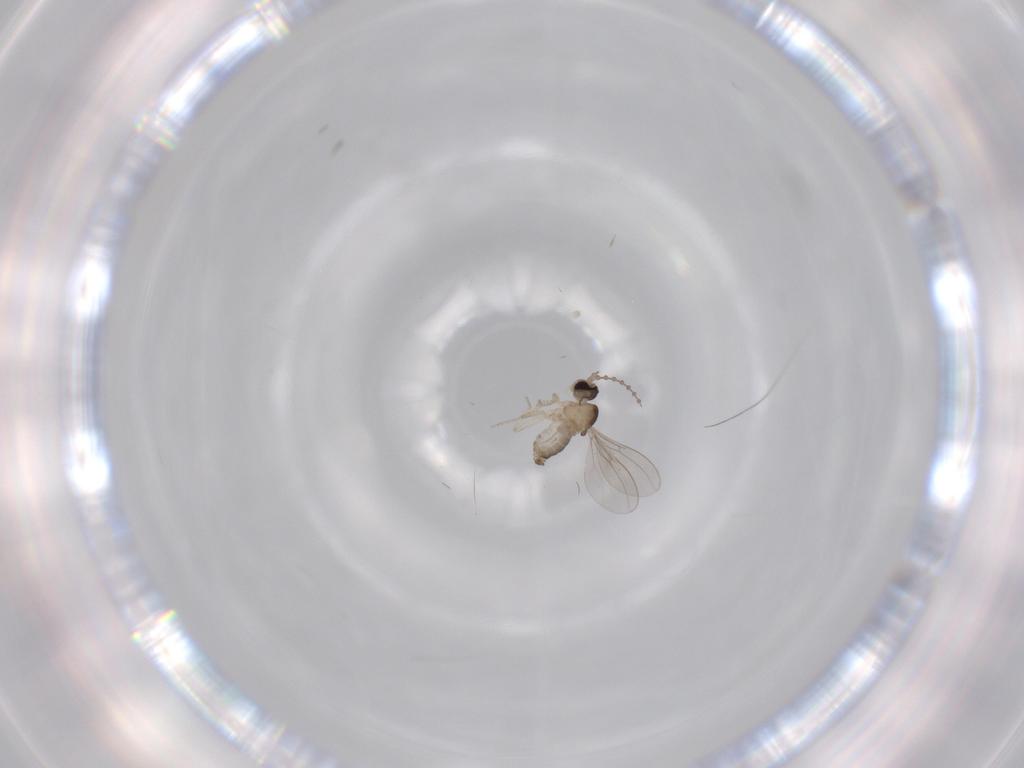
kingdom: Animalia
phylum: Arthropoda
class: Insecta
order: Diptera
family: Cecidomyiidae
